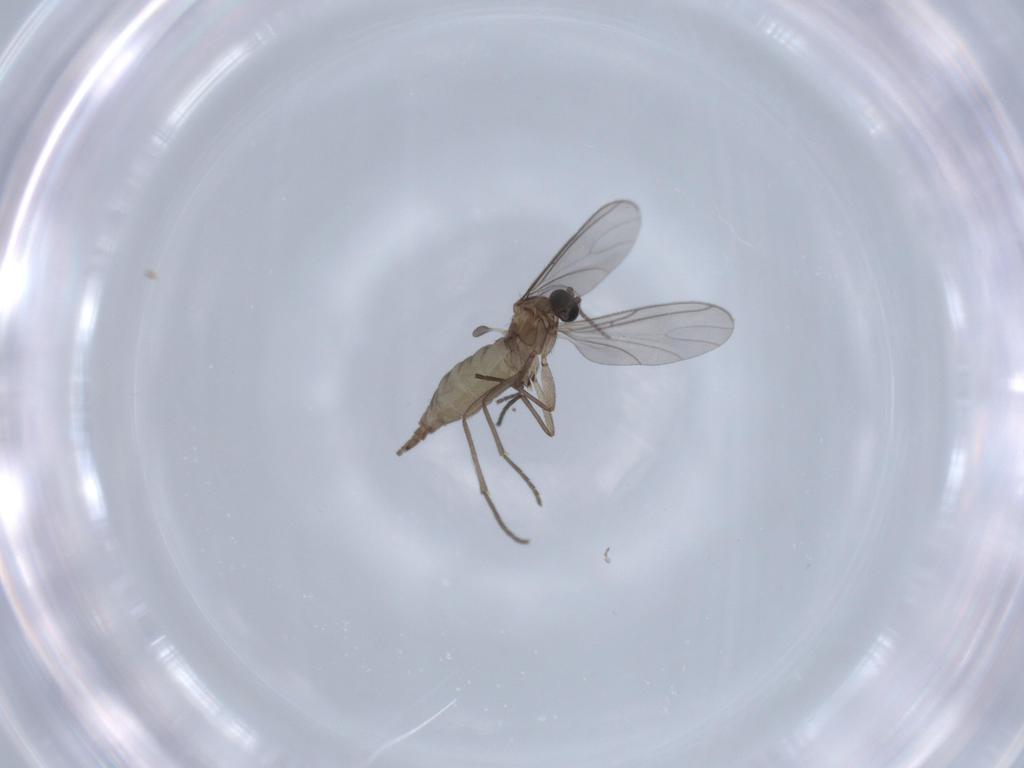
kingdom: Animalia
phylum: Arthropoda
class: Insecta
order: Diptera
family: Sciaridae
